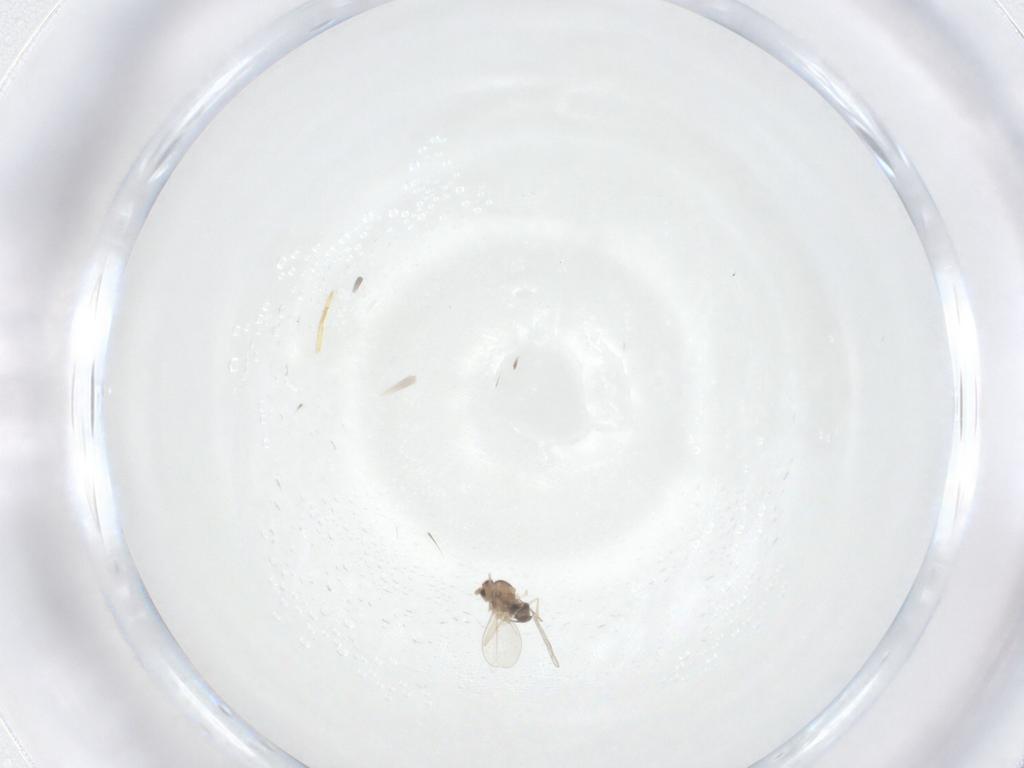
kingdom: Animalia
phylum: Arthropoda
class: Insecta
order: Diptera
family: Cecidomyiidae
